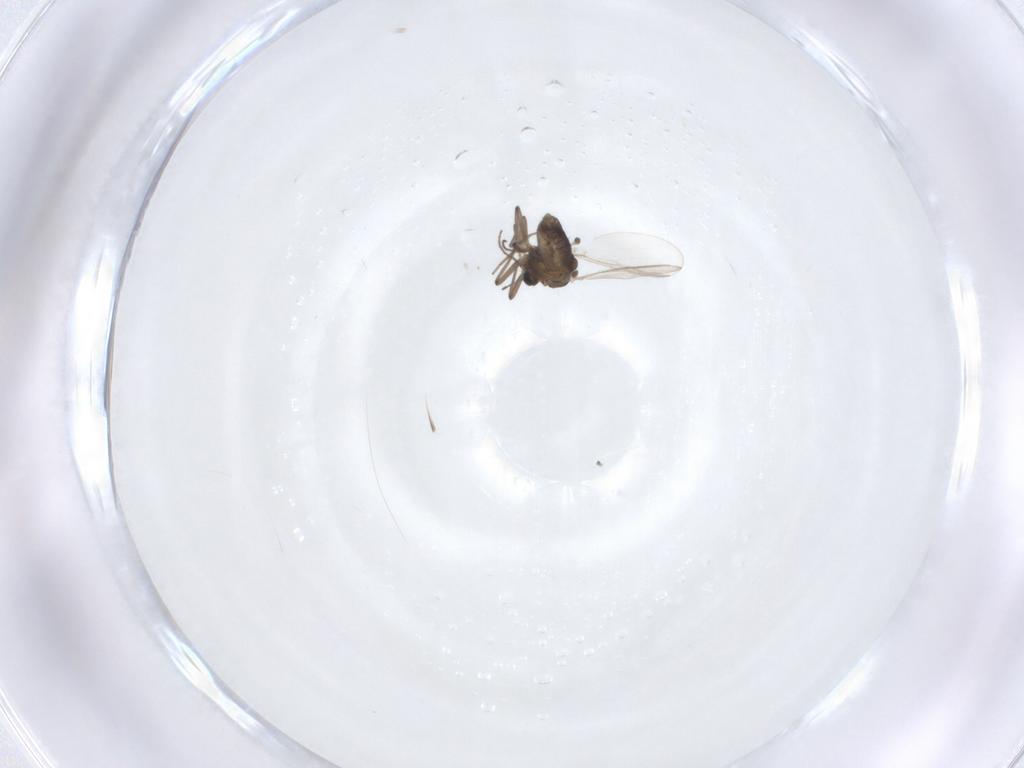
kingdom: Animalia
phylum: Arthropoda
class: Insecta
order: Diptera
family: Chironomidae
